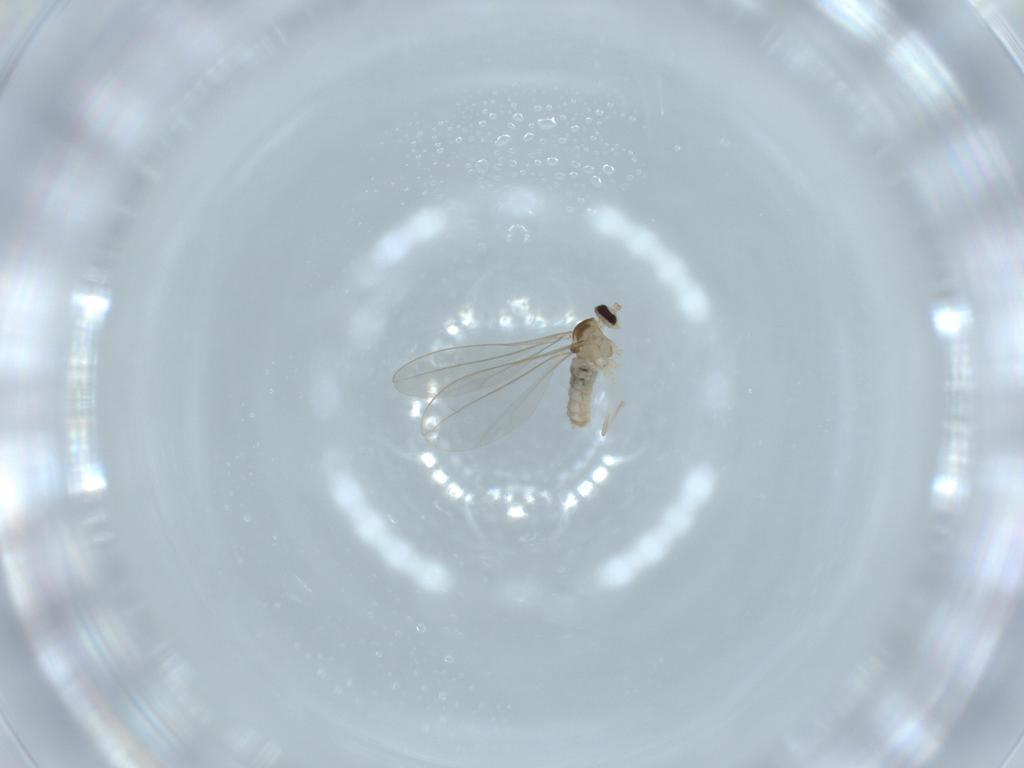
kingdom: Animalia
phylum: Arthropoda
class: Insecta
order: Diptera
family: Cecidomyiidae
